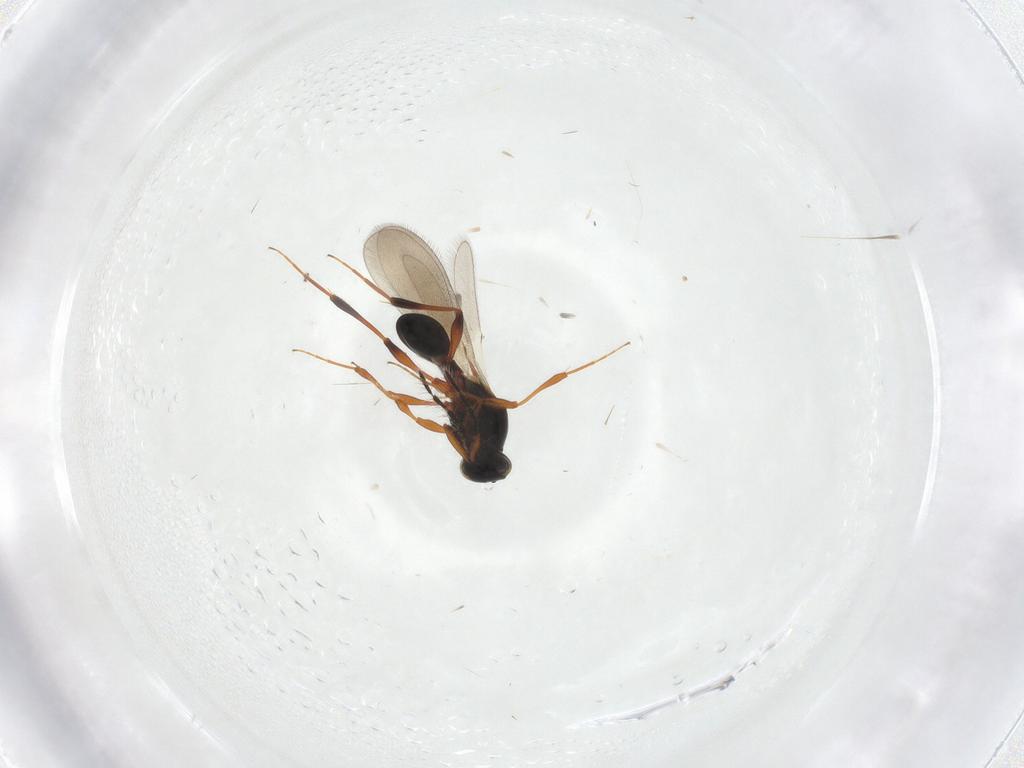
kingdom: Animalia
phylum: Arthropoda
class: Insecta
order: Hymenoptera
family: Platygastridae
